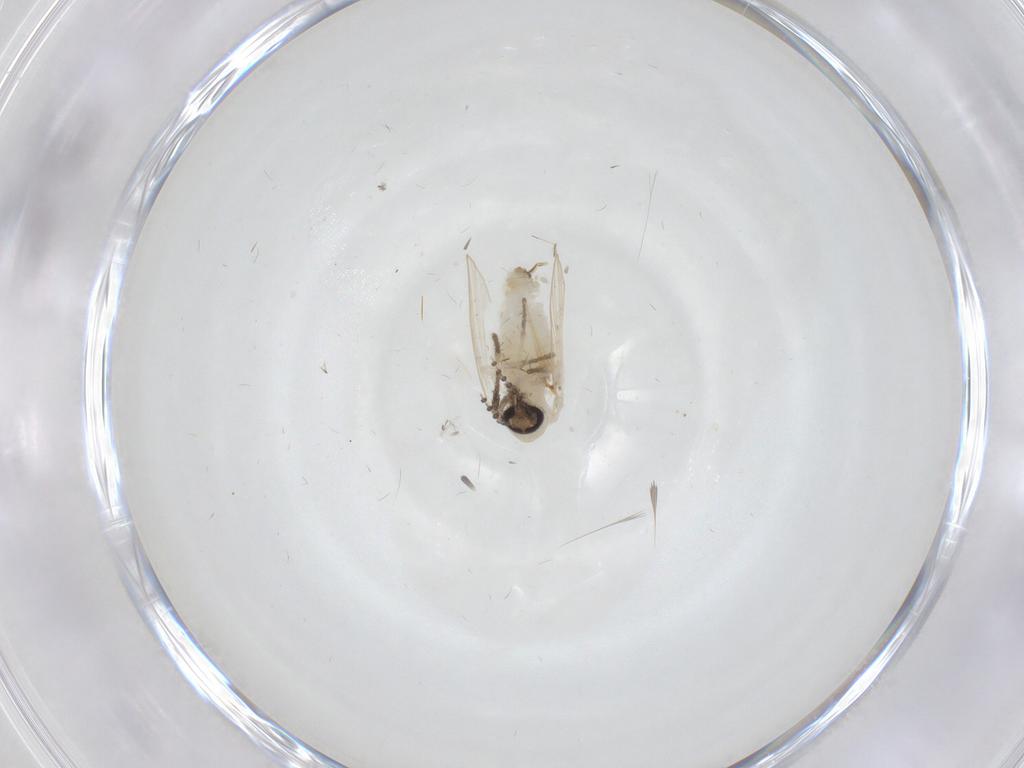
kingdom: Animalia
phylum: Arthropoda
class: Insecta
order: Diptera
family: Psychodidae
